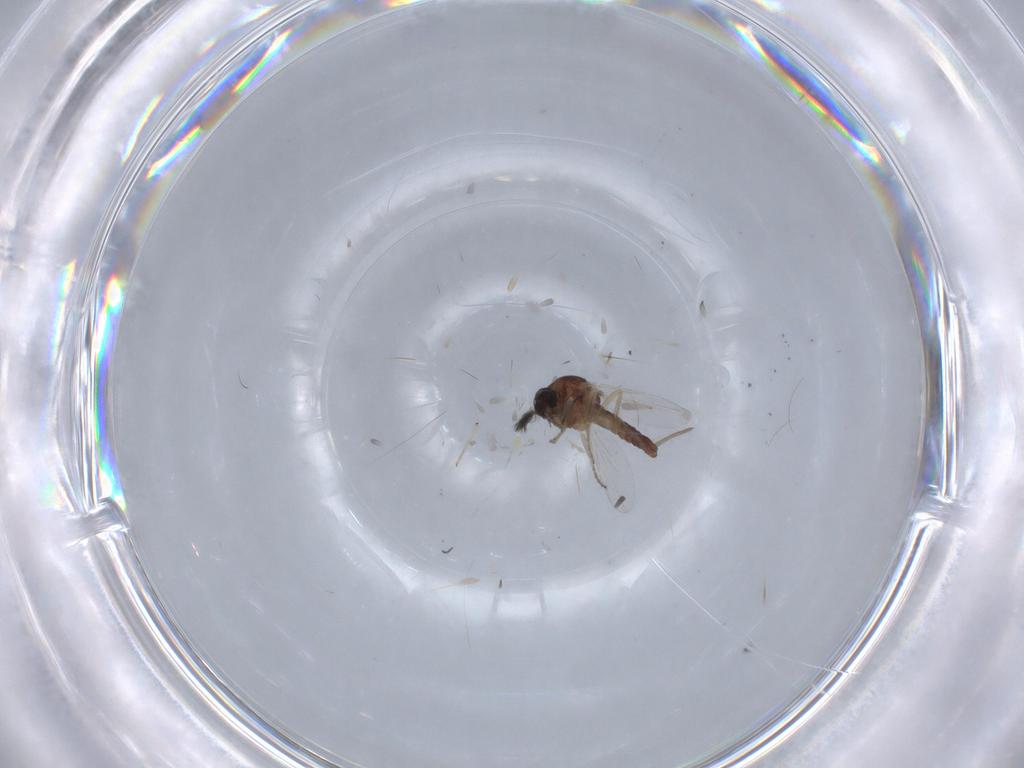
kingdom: Animalia
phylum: Arthropoda
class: Insecta
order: Diptera
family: Ceratopogonidae
